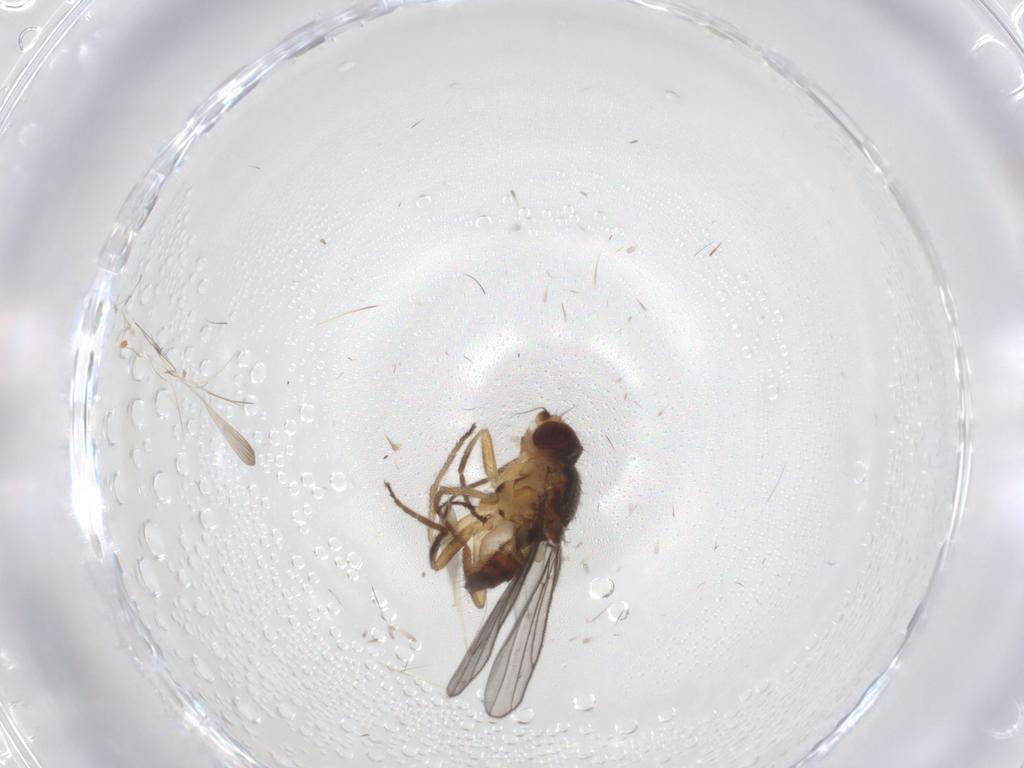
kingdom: Animalia
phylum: Arthropoda
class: Insecta
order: Diptera
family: Chloropidae
